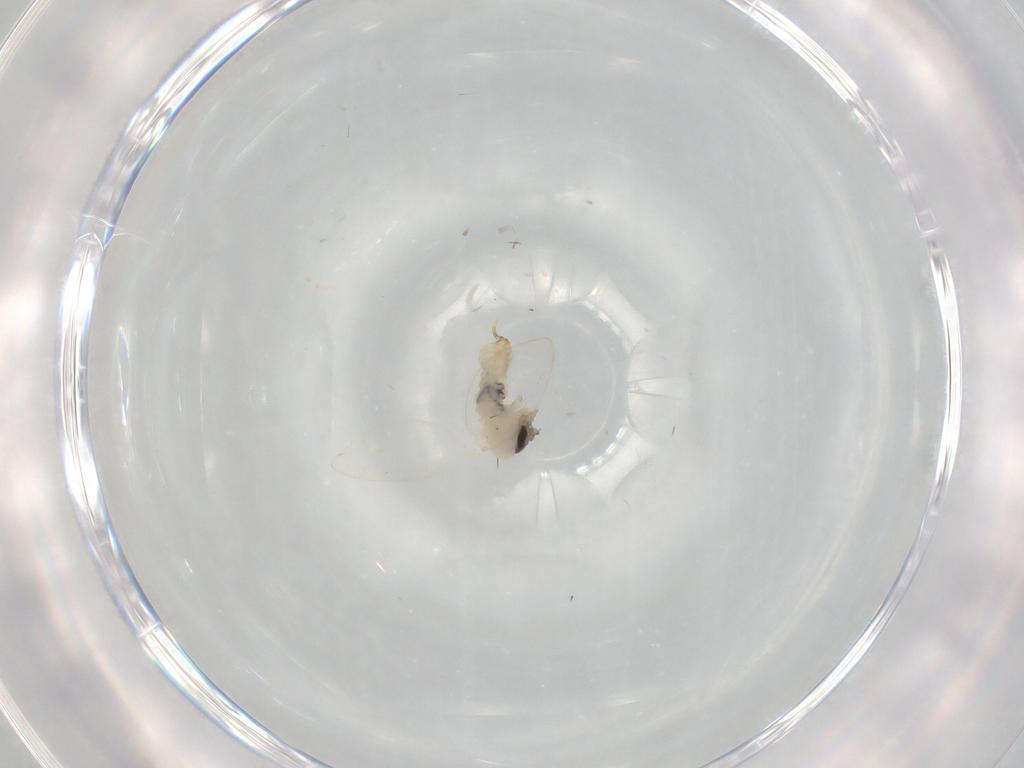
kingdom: Animalia
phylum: Arthropoda
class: Insecta
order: Diptera
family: Psychodidae
